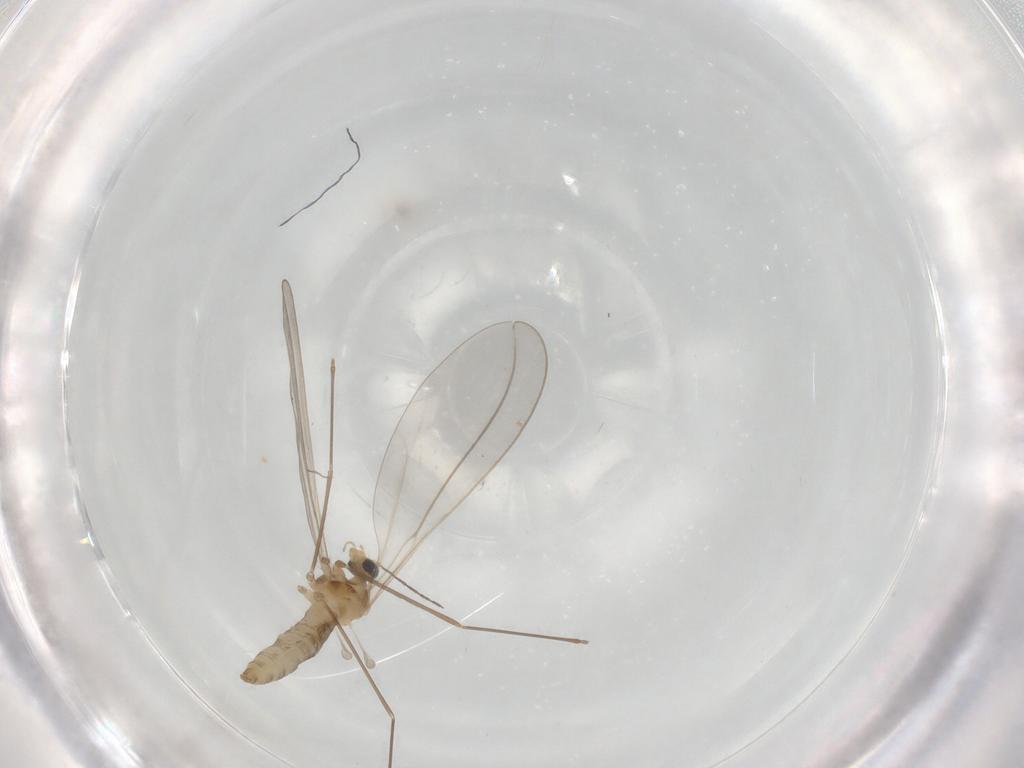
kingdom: Animalia
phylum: Arthropoda
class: Insecta
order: Diptera
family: Cecidomyiidae
